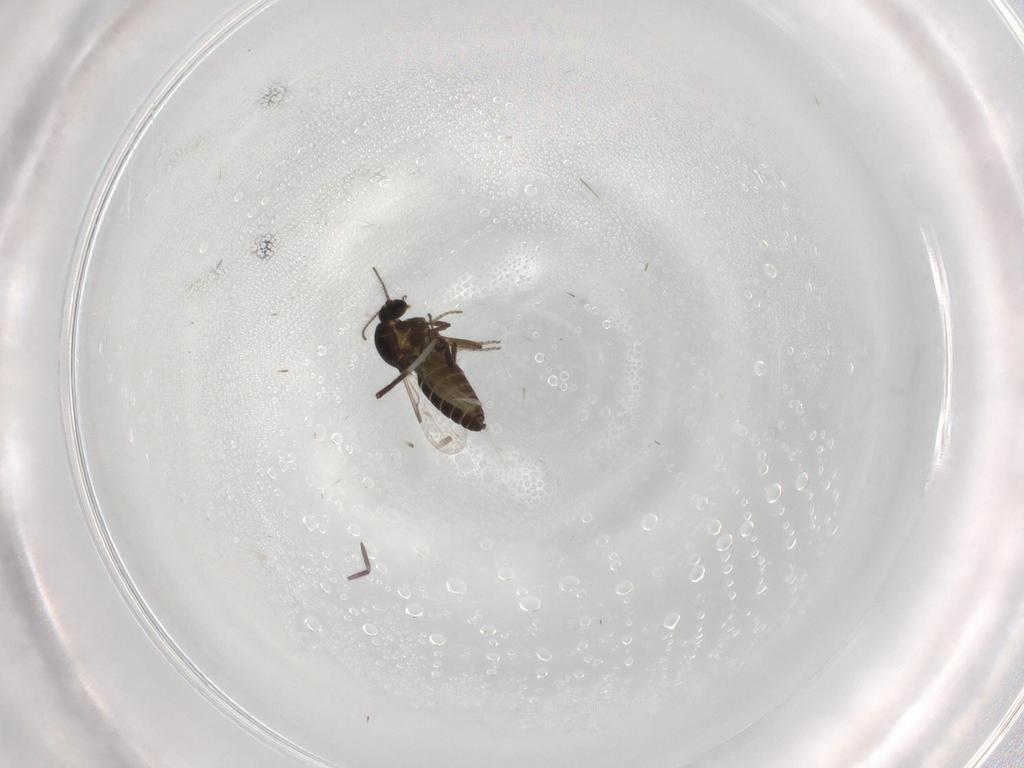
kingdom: Animalia
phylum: Arthropoda
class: Insecta
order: Diptera
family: Ceratopogonidae
